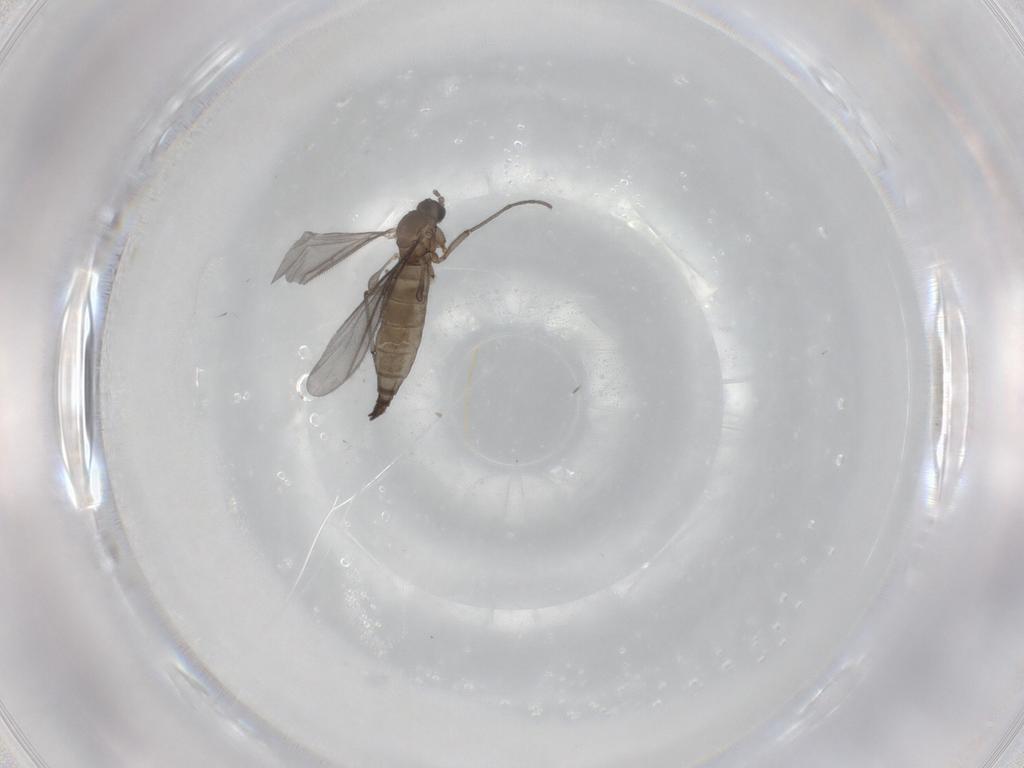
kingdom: Animalia
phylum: Arthropoda
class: Insecta
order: Diptera
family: Sciaridae
